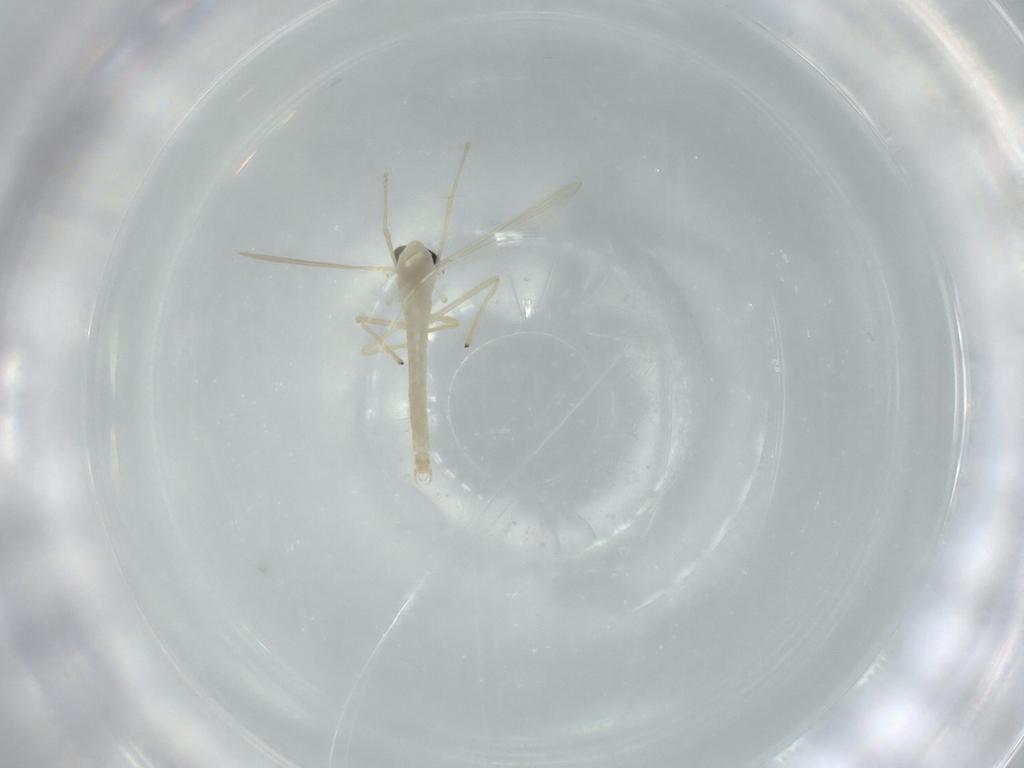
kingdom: Animalia
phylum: Arthropoda
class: Insecta
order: Diptera
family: Chironomidae
